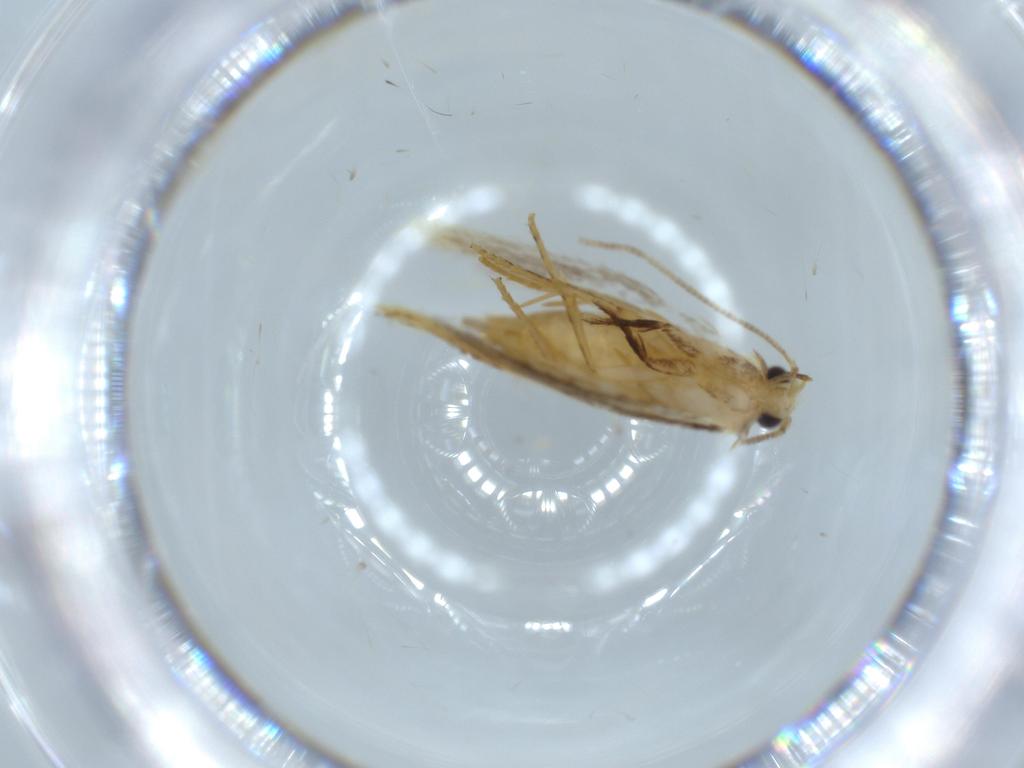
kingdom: Animalia
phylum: Arthropoda
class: Insecta
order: Lepidoptera
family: Tineidae
